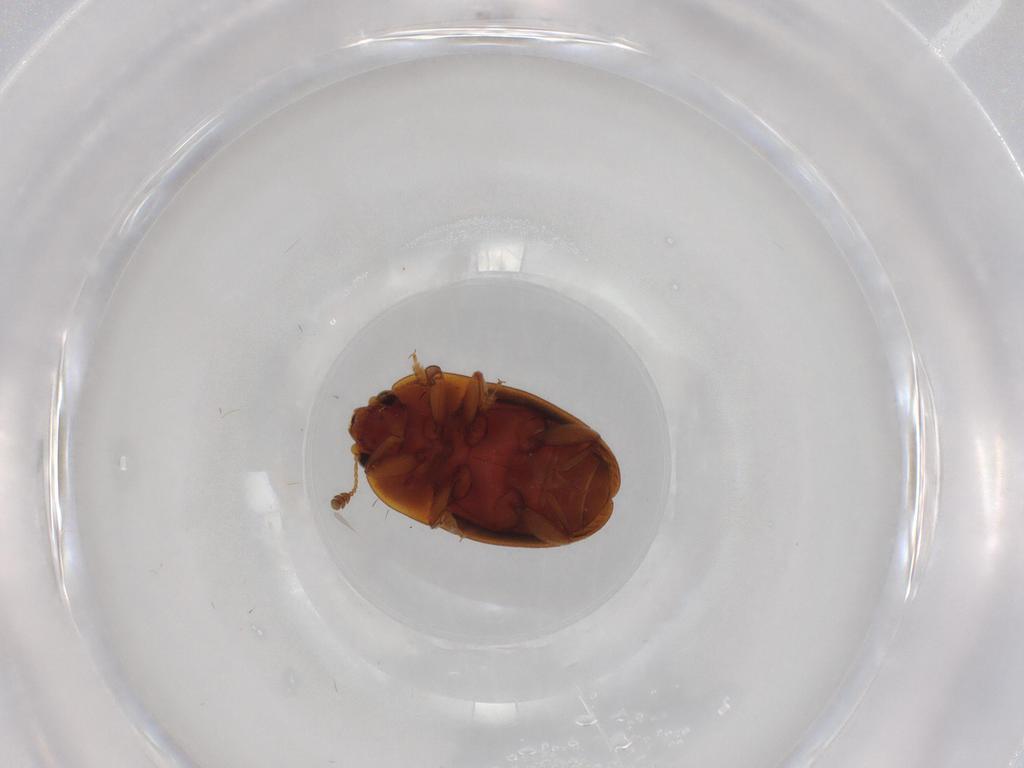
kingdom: Animalia
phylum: Arthropoda
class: Insecta
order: Coleoptera
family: Nitidulidae
